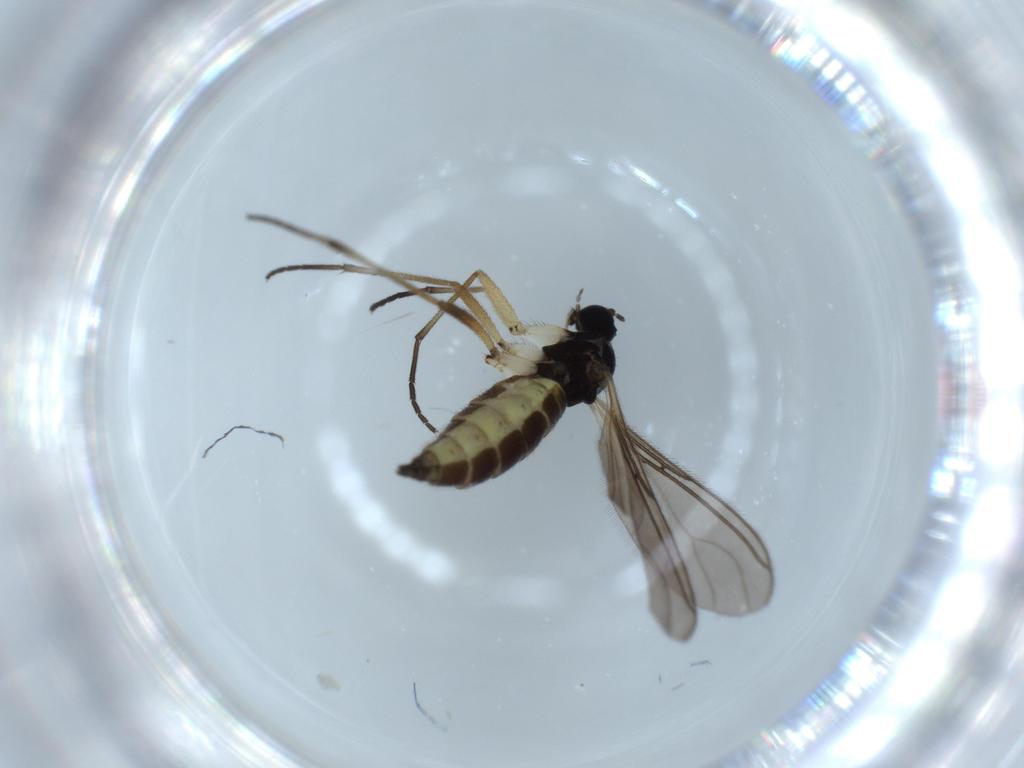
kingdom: Animalia
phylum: Arthropoda
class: Insecta
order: Diptera
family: Sciaridae
